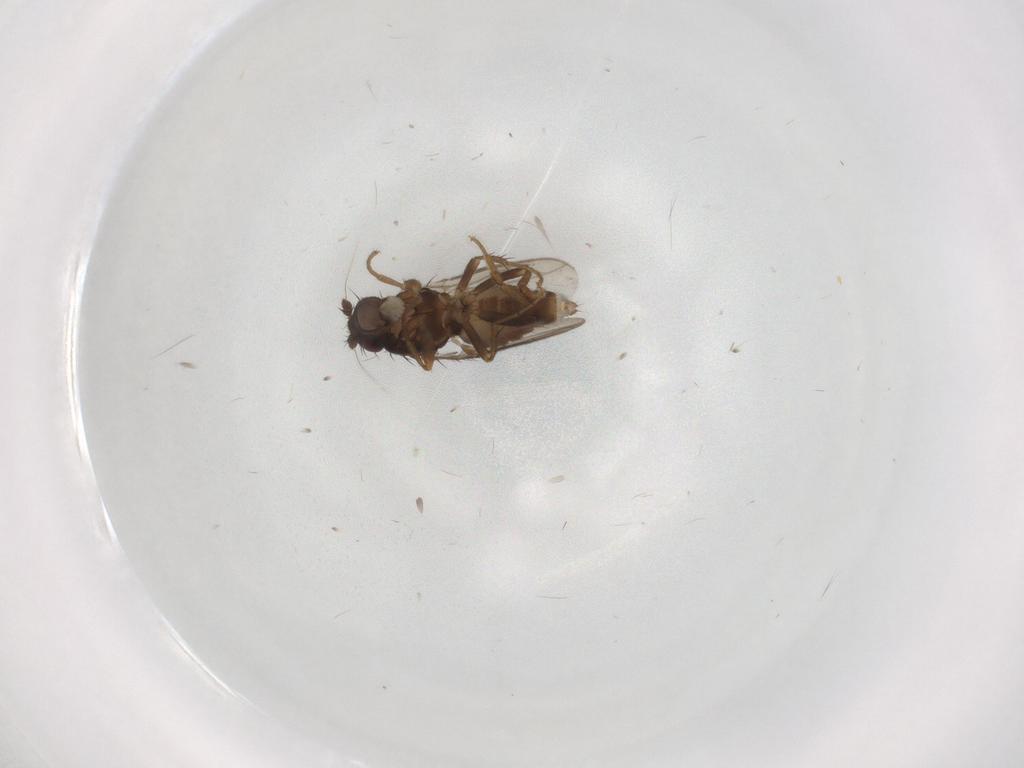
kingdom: Animalia
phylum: Arthropoda
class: Insecta
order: Diptera
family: Sphaeroceridae
